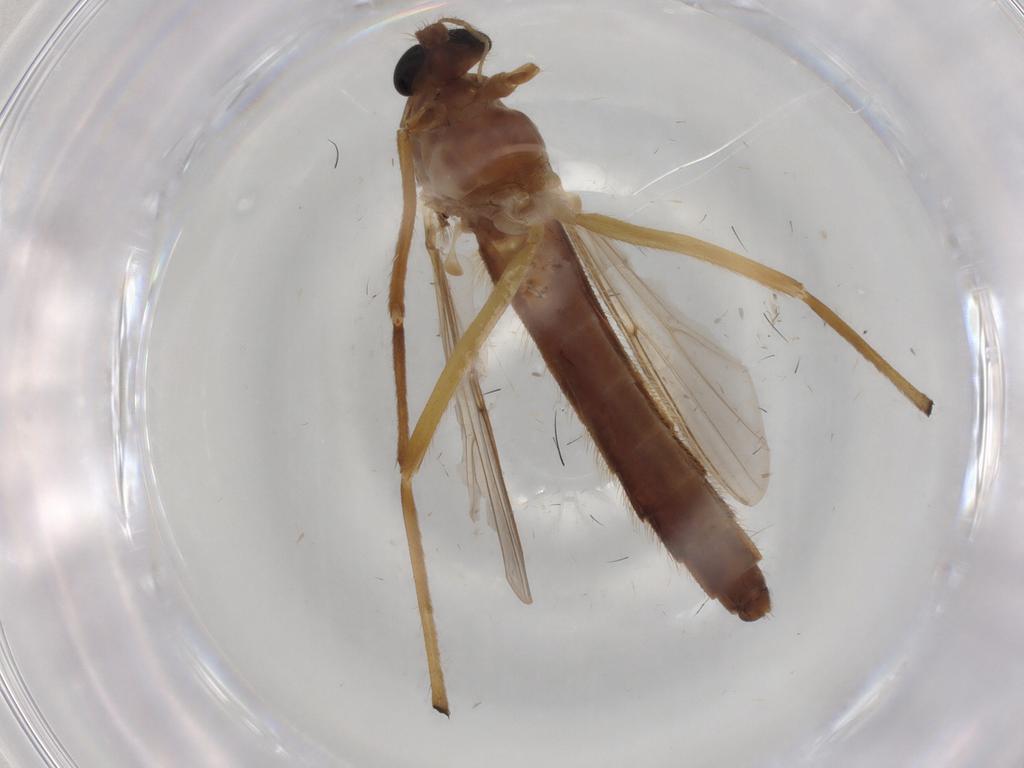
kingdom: Animalia
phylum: Arthropoda
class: Insecta
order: Diptera
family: Chironomidae
